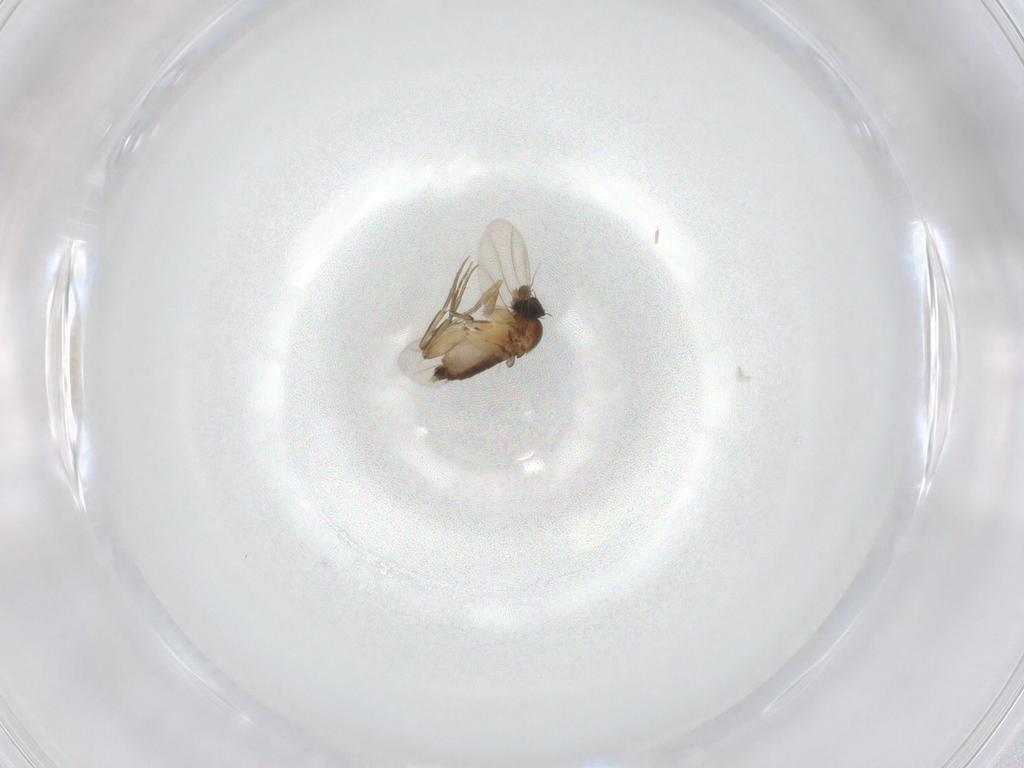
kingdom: Animalia
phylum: Arthropoda
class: Insecta
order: Diptera
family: Phoridae
